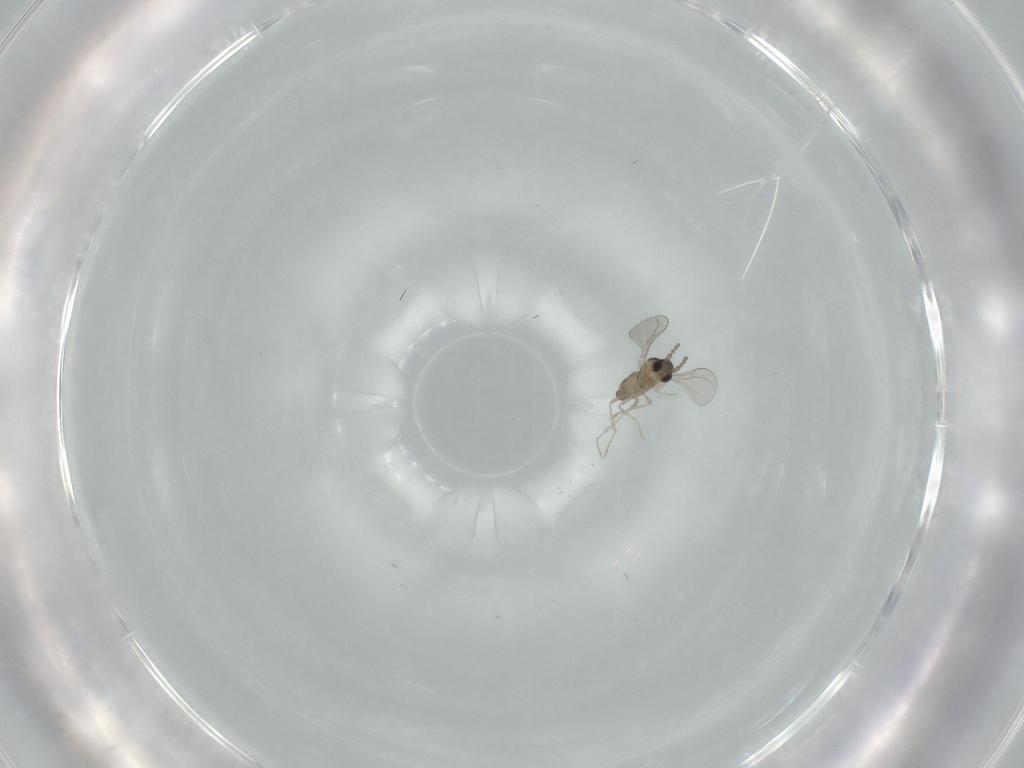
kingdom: Animalia
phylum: Arthropoda
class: Insecta
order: Diptera
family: Cecidomyiidae
